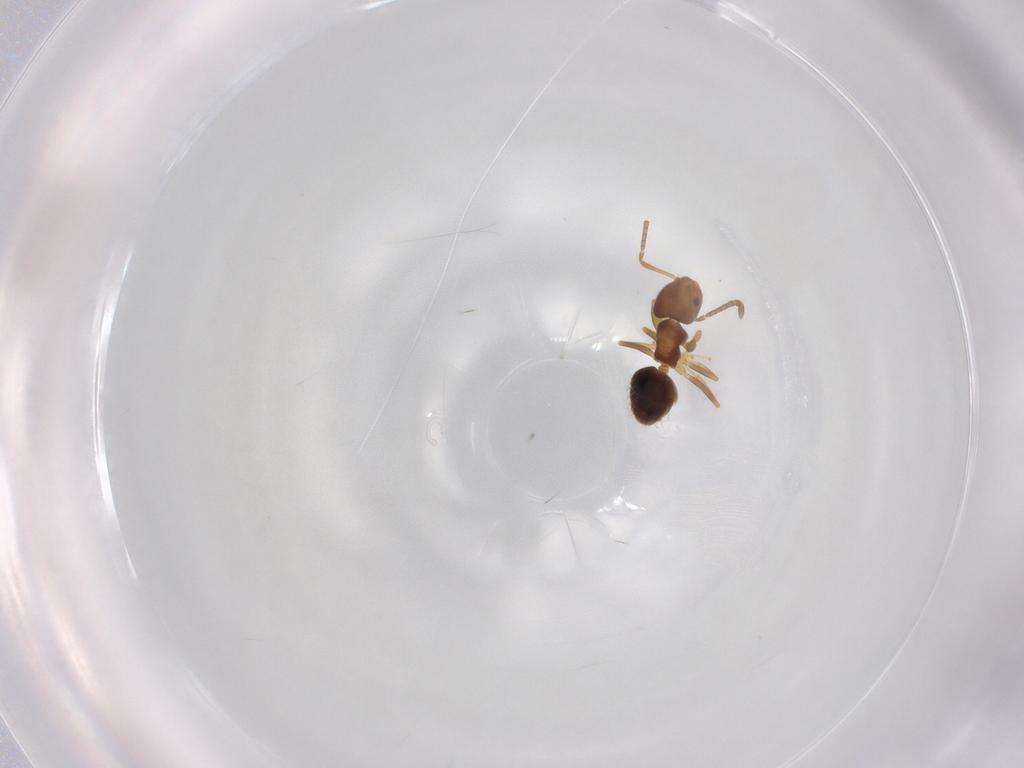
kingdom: Animalia
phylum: Arthropoda
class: Insecta
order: Hymenoptera
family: Formicidae
